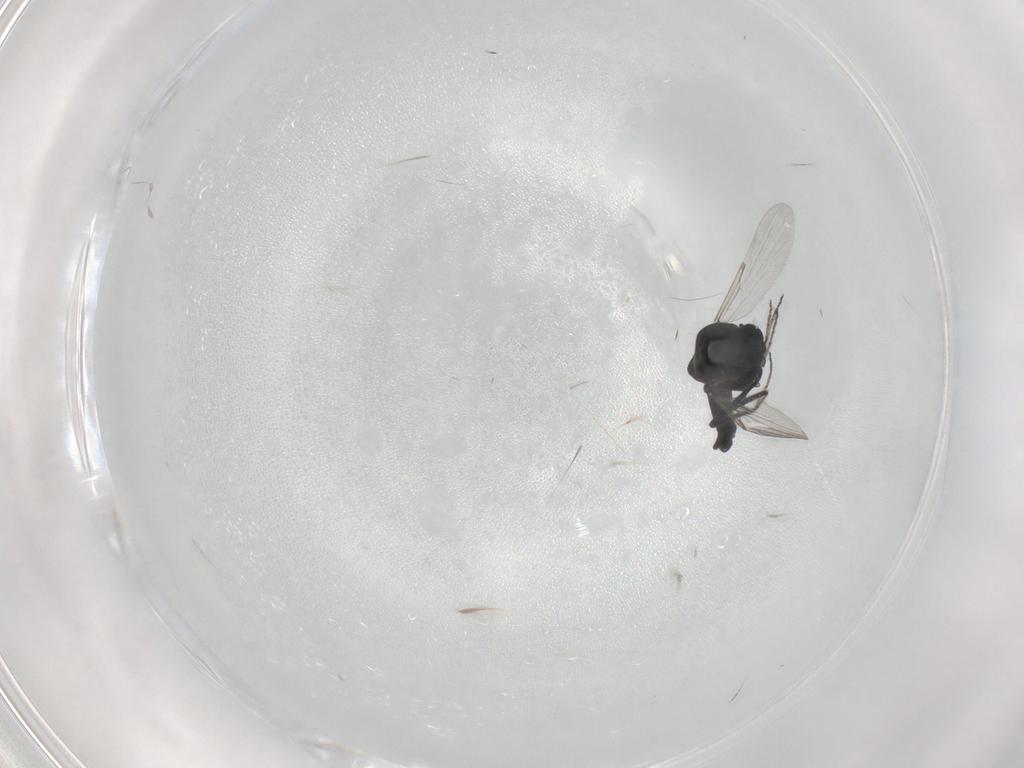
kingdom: Animalia
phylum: Arthropoda
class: Insecta
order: Diptera
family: Ceratopogonidae
